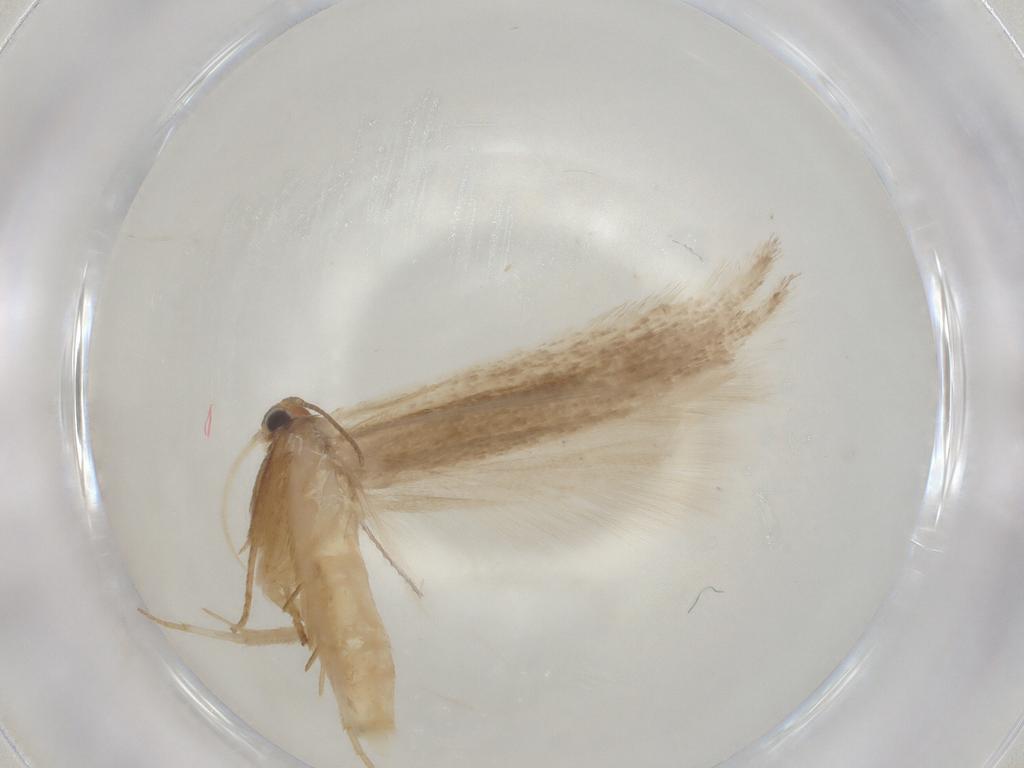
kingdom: Animalia
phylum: Arthropoda
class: Insecta
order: Lepidoptera
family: Gelechiidae
